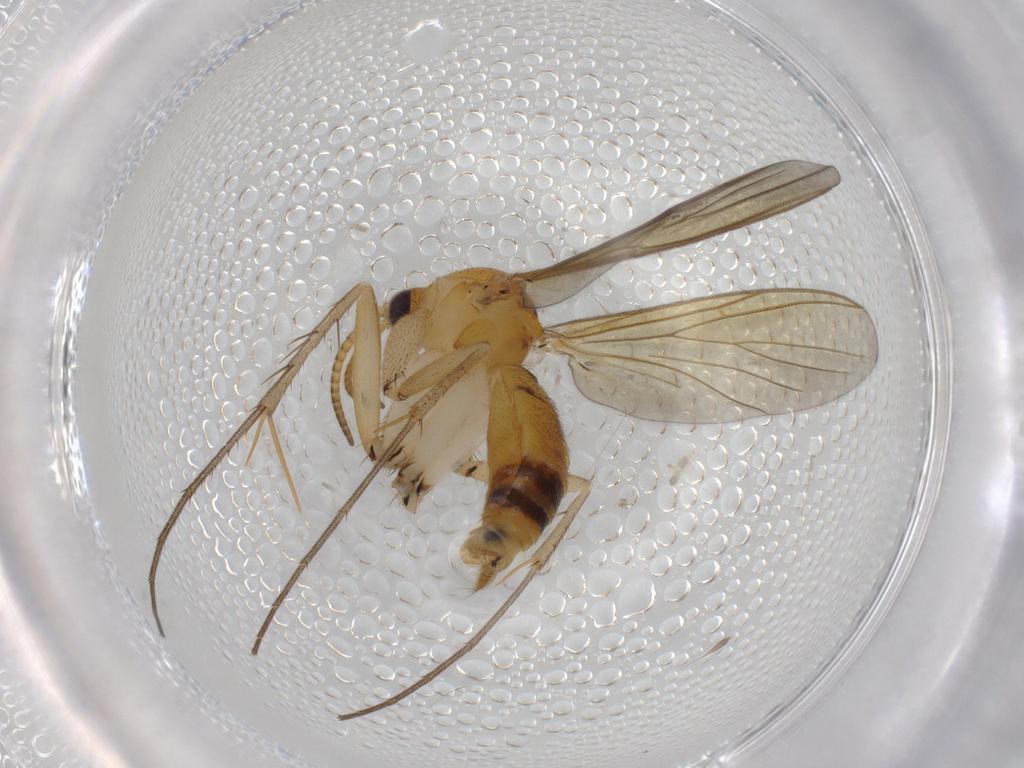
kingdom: Animalia
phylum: Arthropoda
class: Insecta
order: Diptera
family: Mycetophilidae
